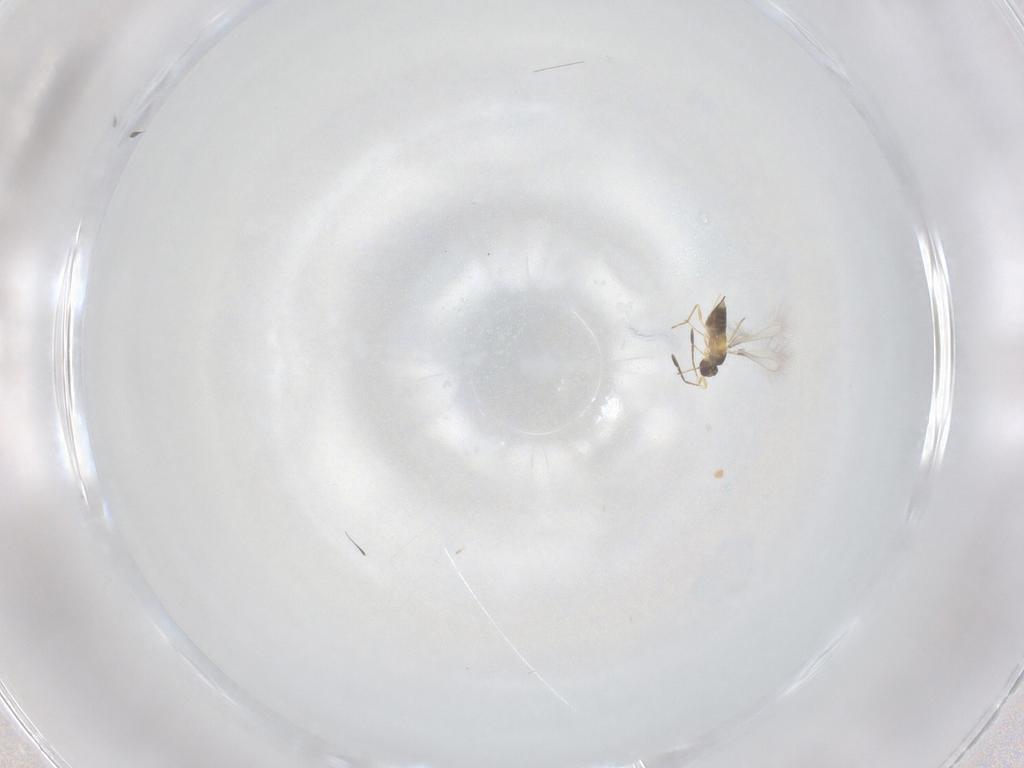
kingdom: Animalia
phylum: Arthropoda
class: Insecta
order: Hymenoptera
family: Mymaridae
